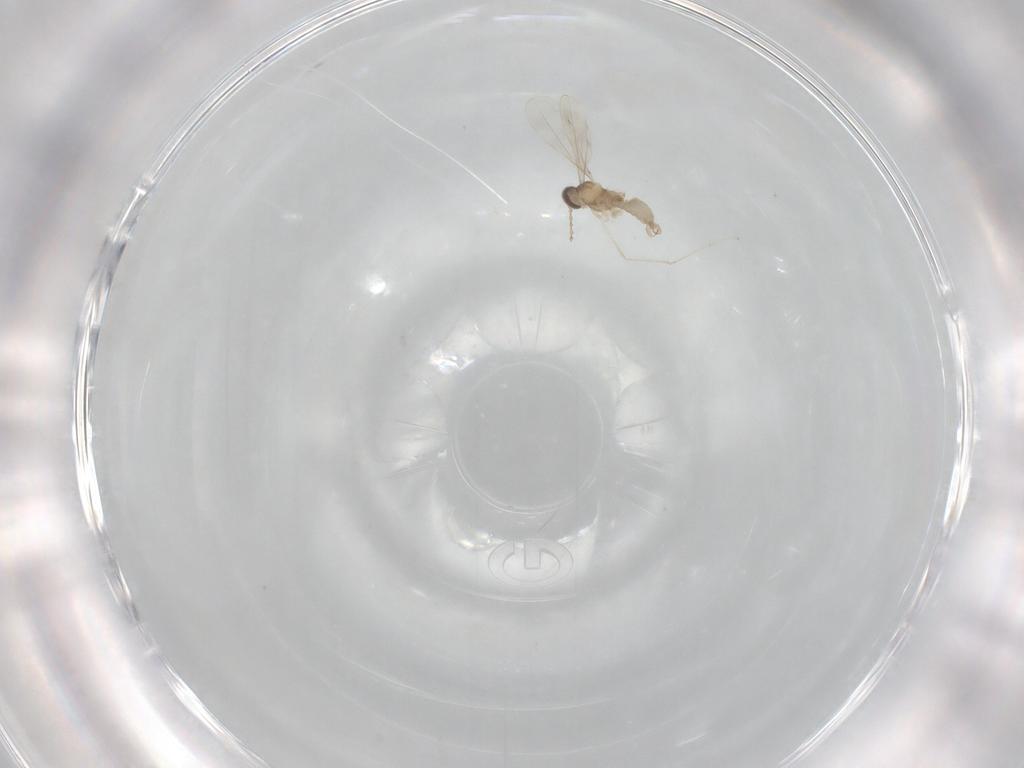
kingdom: Animalia
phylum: Arthropoda
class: Insecta
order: Diptera
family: Cecidomyiidae
